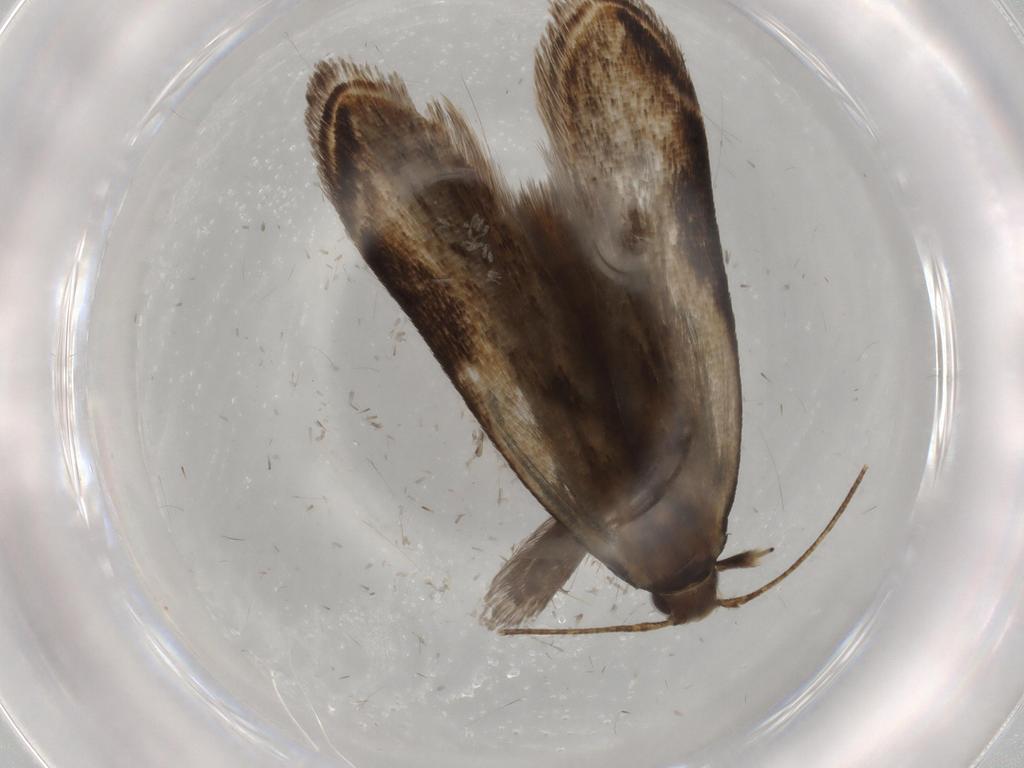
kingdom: Animalia
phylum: Arthropoda
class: Insecta
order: Lepidoptera
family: Gelechiidae
